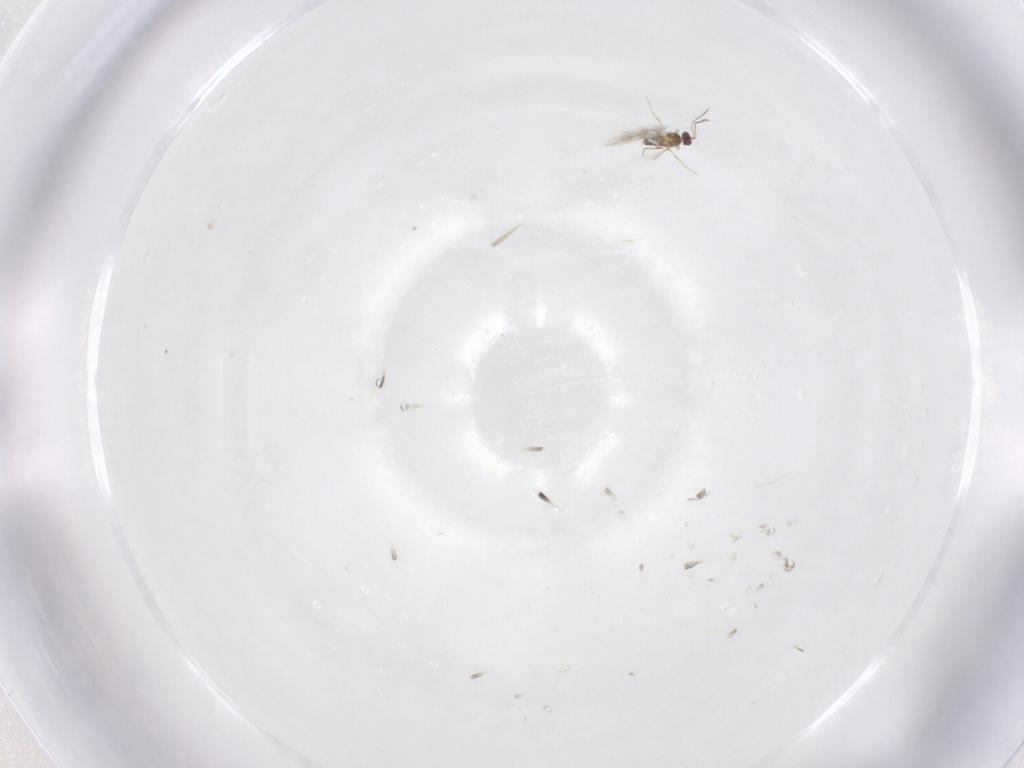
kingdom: Animalia
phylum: Arthropoda
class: Insecta
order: Hymenoptera
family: Mymaridae
